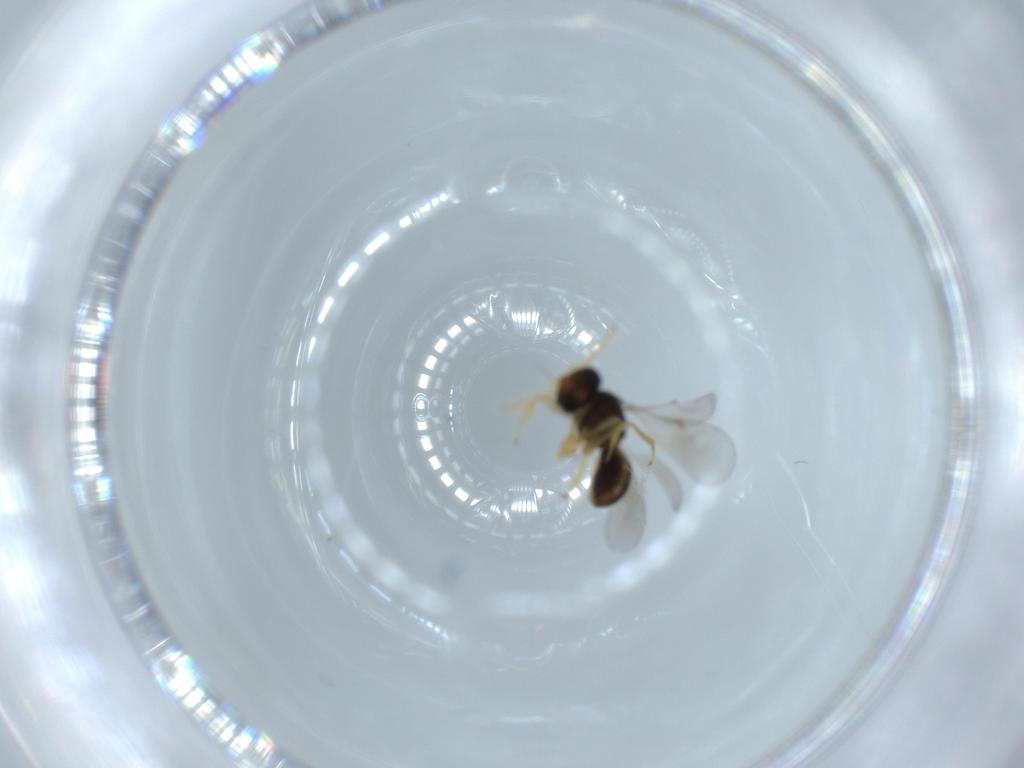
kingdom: Animalia
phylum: Arthropoda
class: Insecta
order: Hymenoptera
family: Scelionidae
